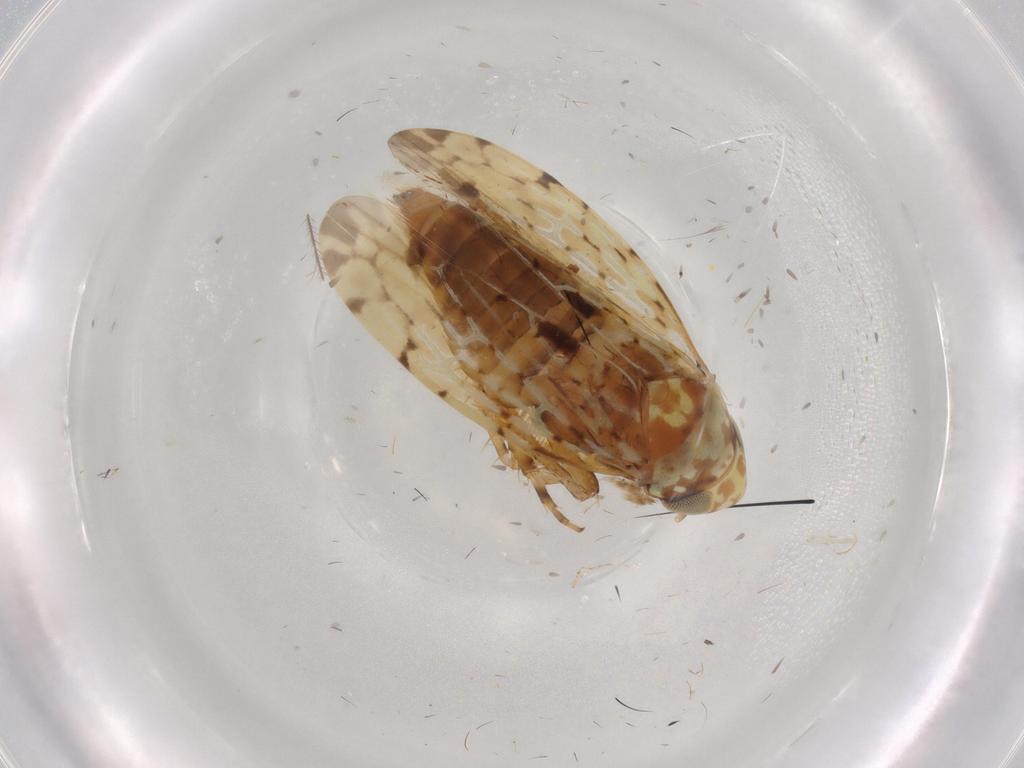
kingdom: Animalia
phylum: Arthropoda
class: Insecta
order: Hemiptera
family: Cicadellidae
